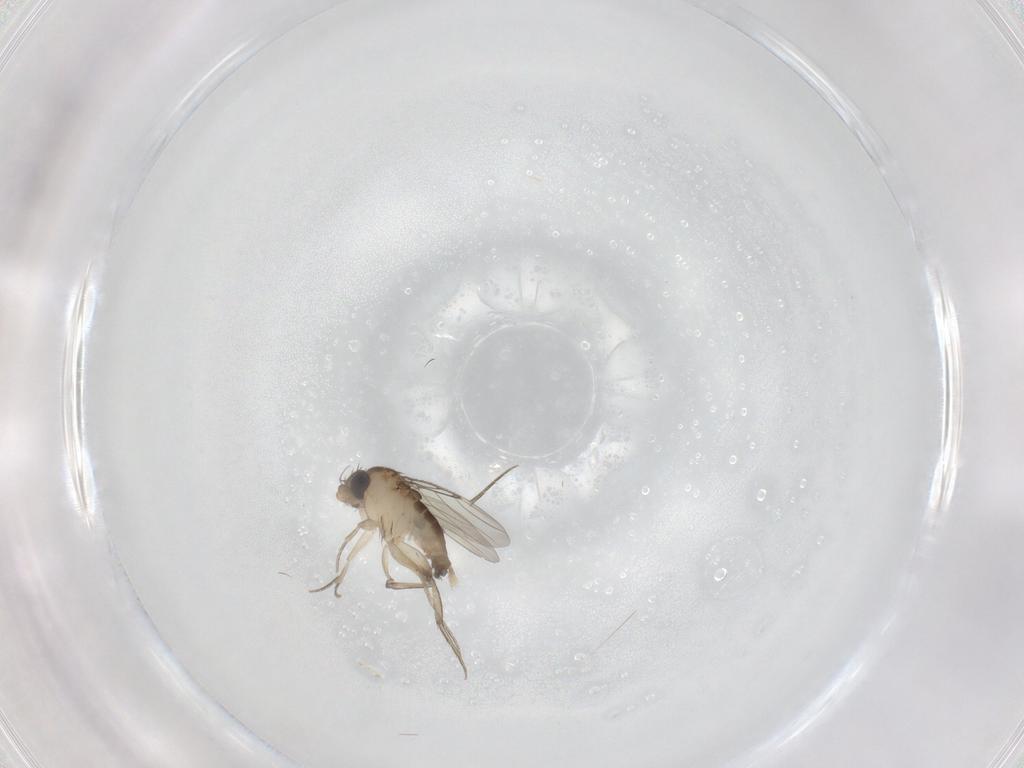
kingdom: Animalia
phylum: Arthropoda
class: Insecta
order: Diptera
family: Phoridae
